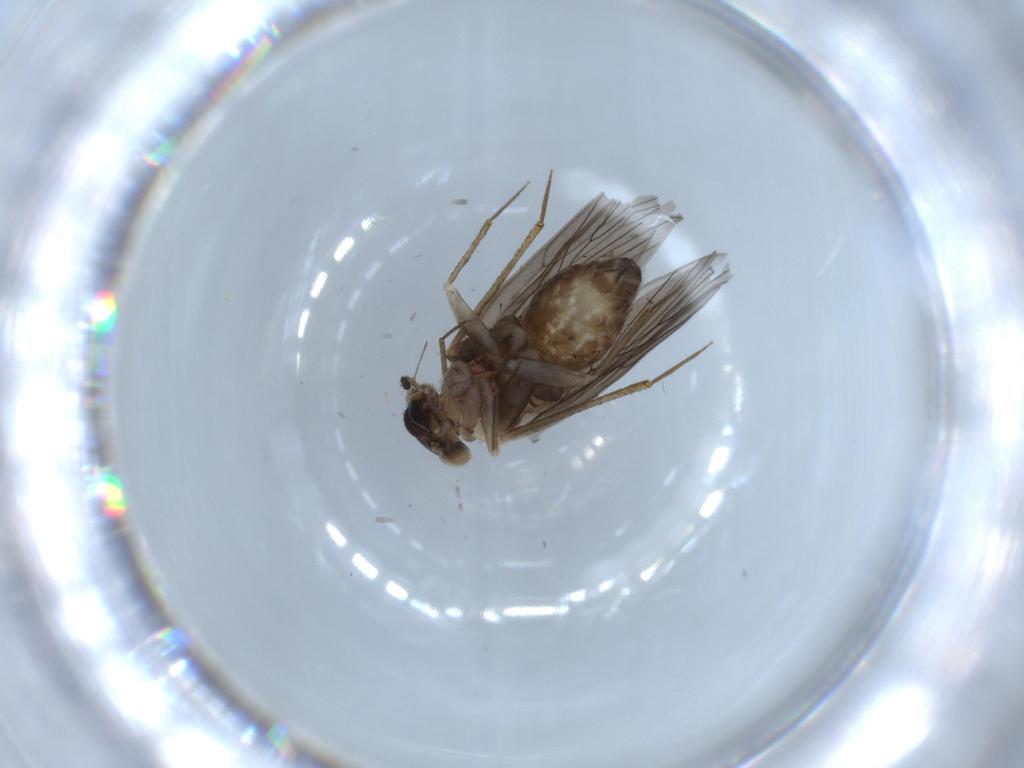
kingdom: Animalia
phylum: Arthropoda
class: Insecta
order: Psocodea
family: Lepidopsocidae
